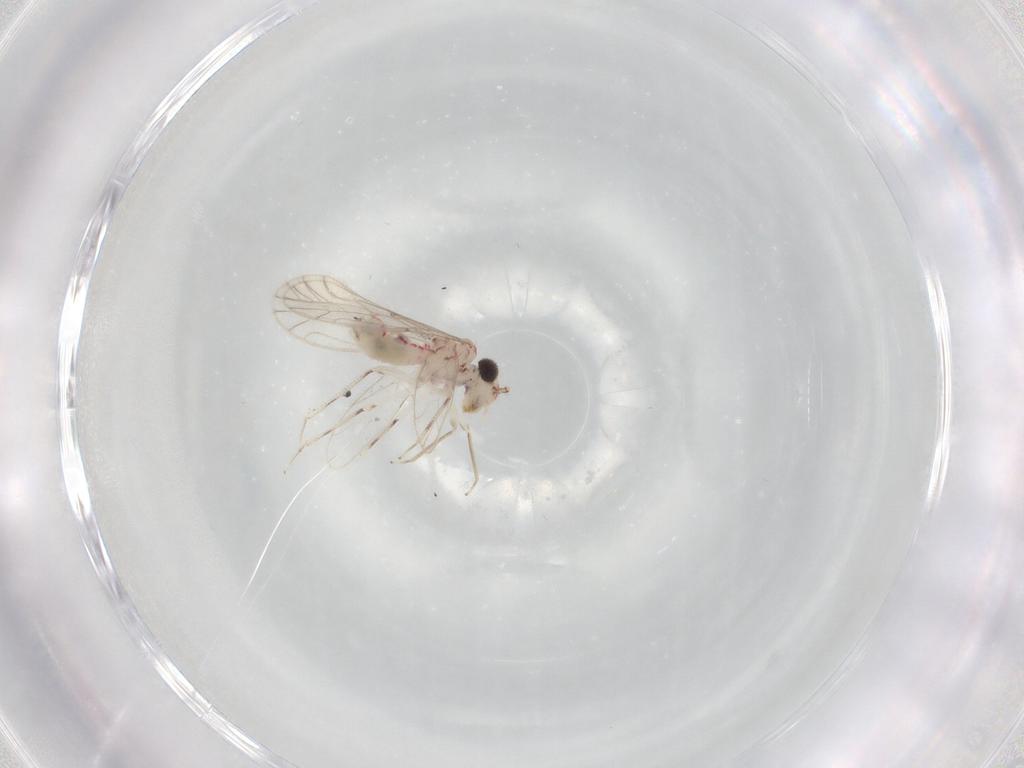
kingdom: Animalia
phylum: Arthropoda
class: Insecta
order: Psocodea
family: Caeciliusidae
